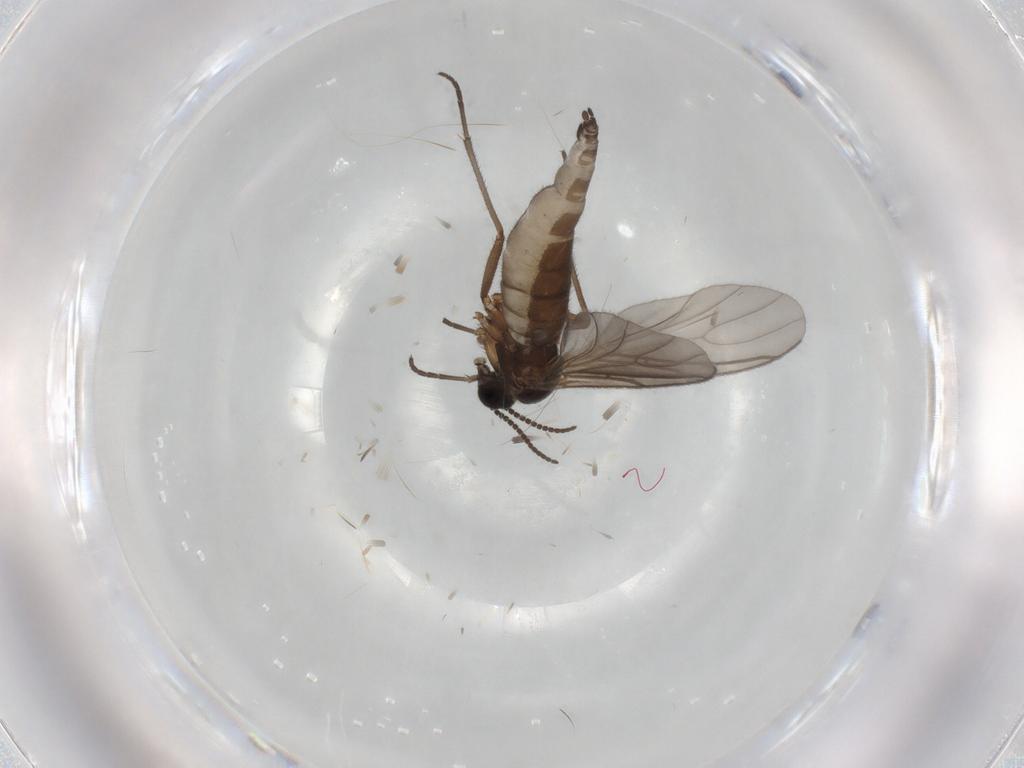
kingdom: Animalia
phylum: Arthropoda
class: Insecta
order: Diptera
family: Sciaridae
